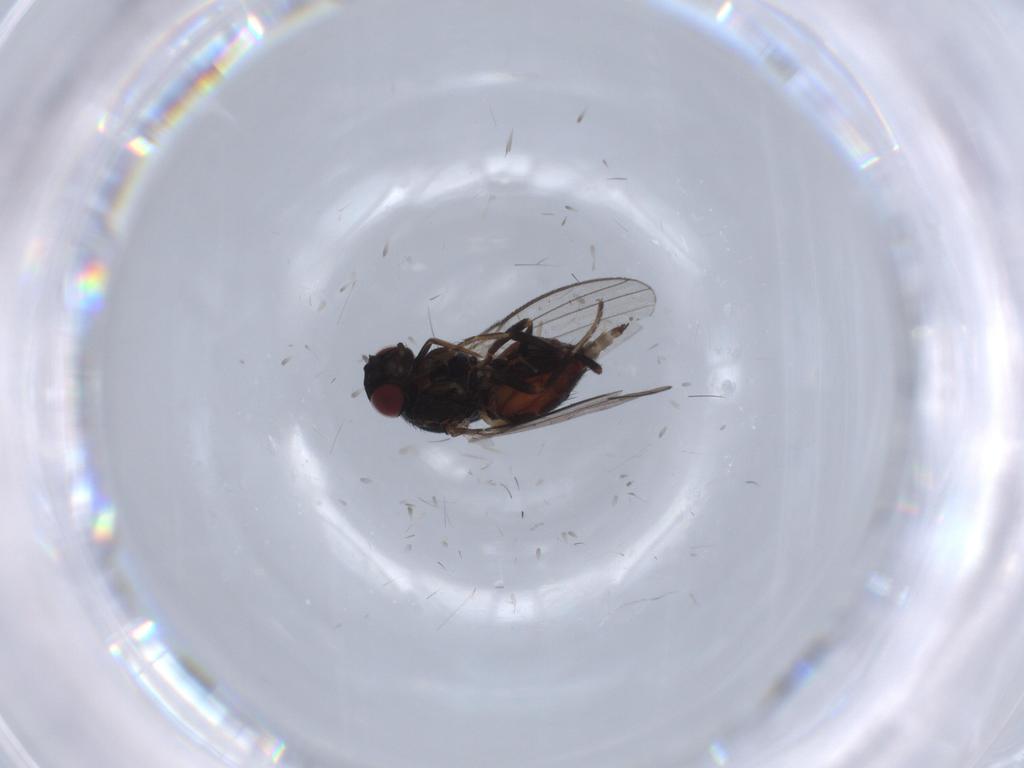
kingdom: Animalia
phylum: Arthropoda
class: Insecta
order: Diptera
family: Milichiidae
